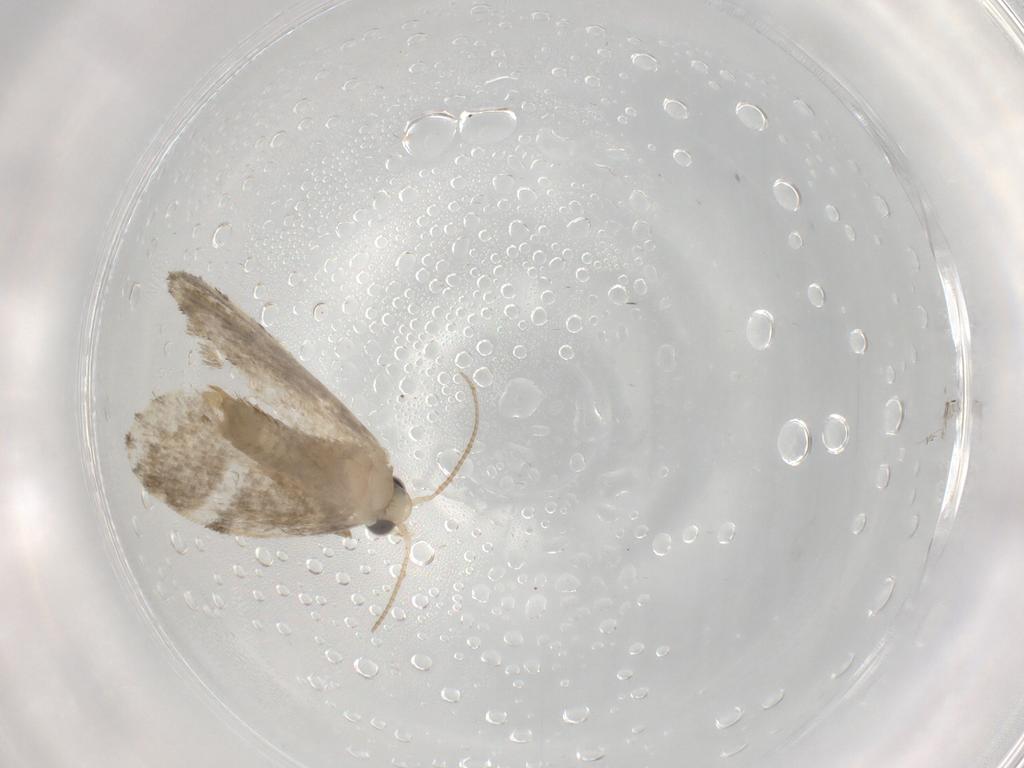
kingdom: Animalia
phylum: Arthropoda
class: Insecta
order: Lepidoptera
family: Psychidae
